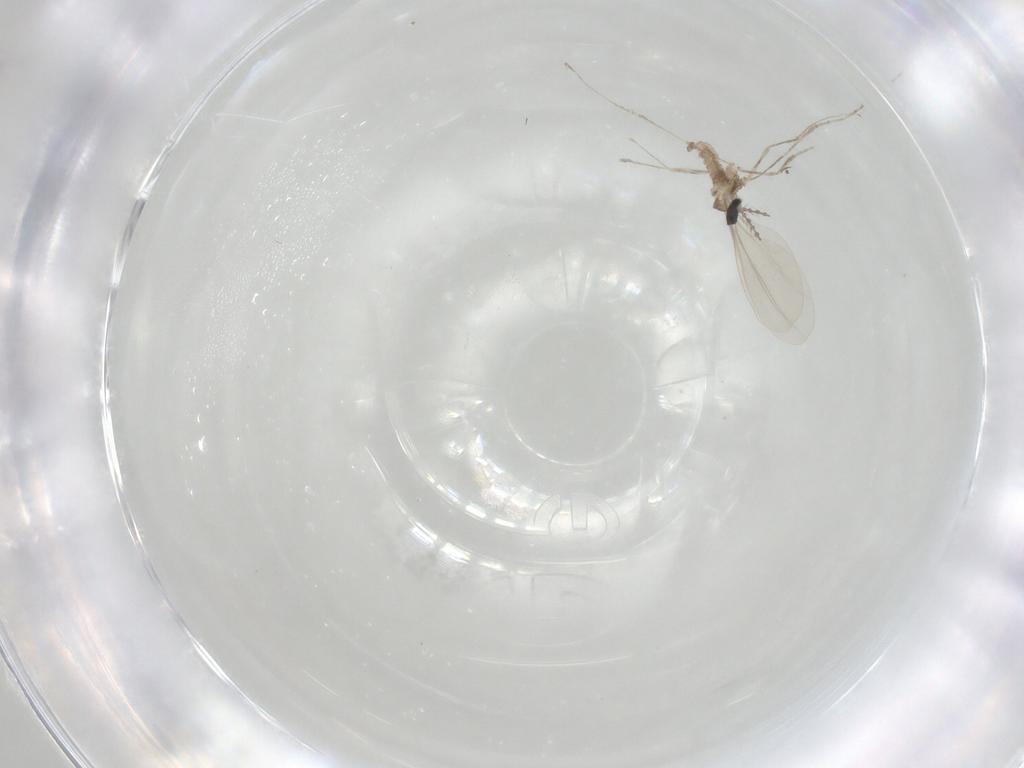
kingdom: Animalia
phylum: Arthropoda
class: Insecta
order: Diptera
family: Cecidomyiidae
